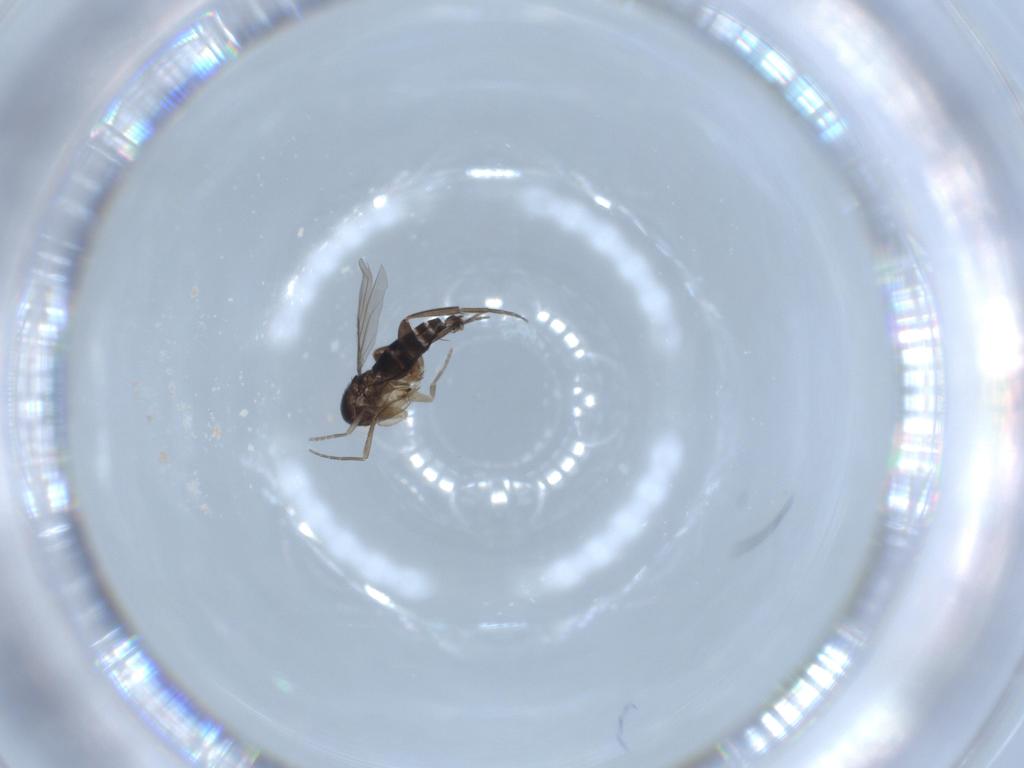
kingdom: Animalia
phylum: Arthropoda
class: Insecta
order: Diptera
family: Phoridae
